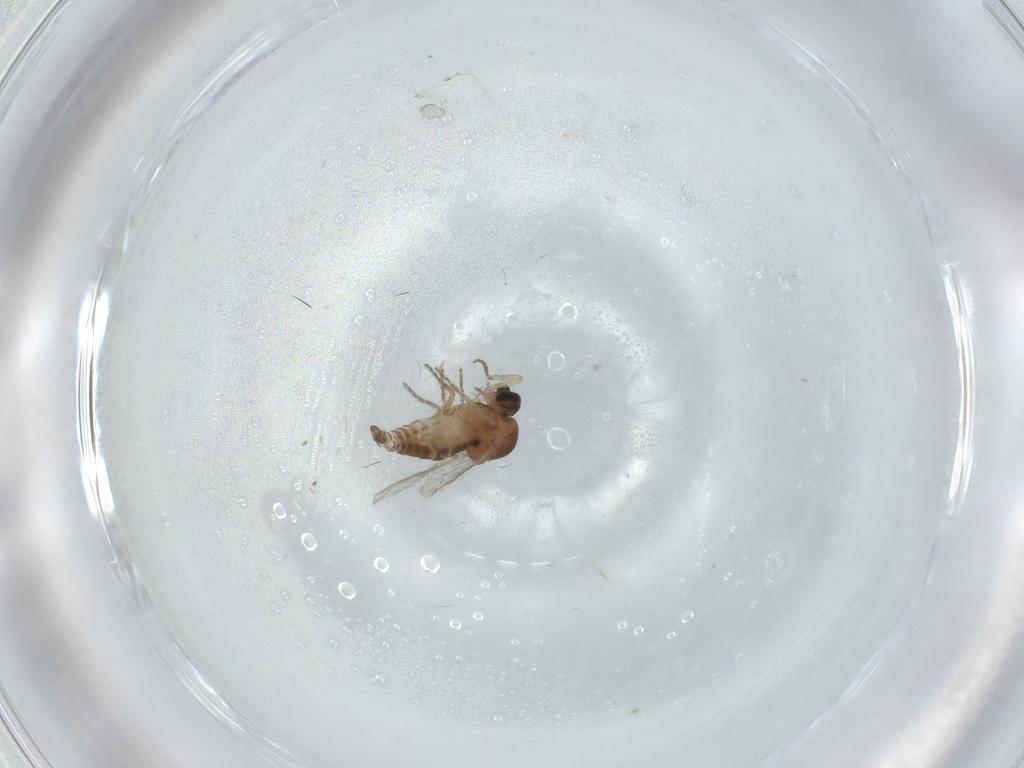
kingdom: Animalia
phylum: Arthropoda
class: Insecta
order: Diptera
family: Ceratopogonidae
